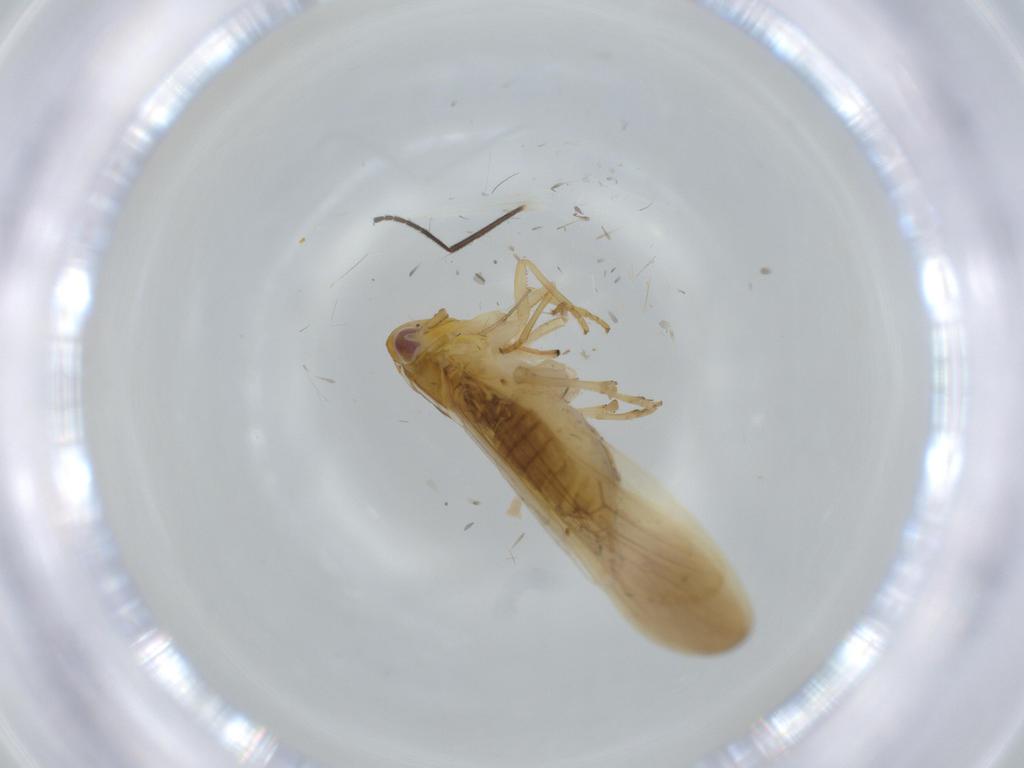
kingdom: Animalia
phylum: Arthropoda
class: Insecta
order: Hemiptera
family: Delphacidae
